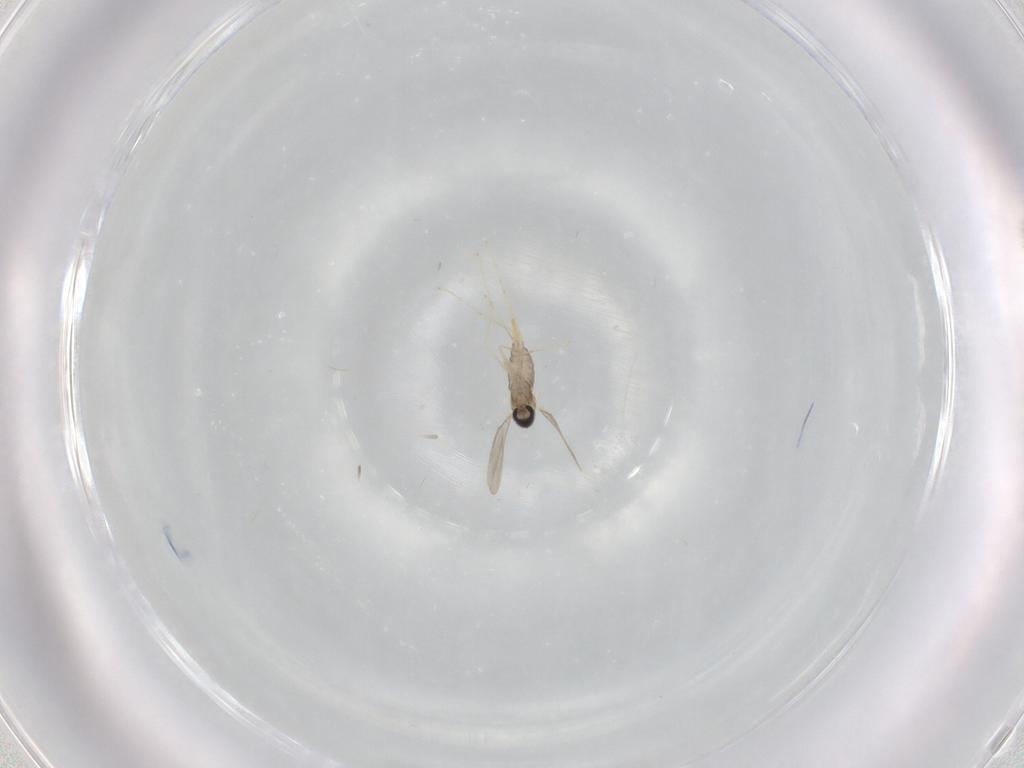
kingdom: Animalia
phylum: Arthropoda
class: Insecta
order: Diptera
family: Cecidomyiidae
